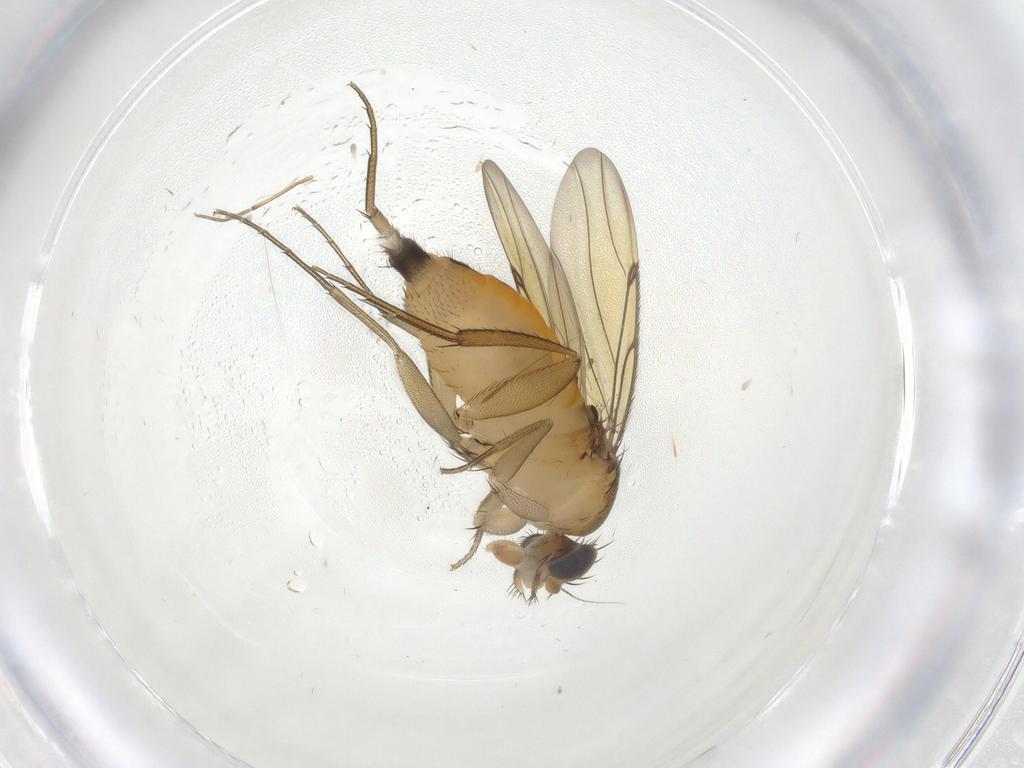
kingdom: Animalia
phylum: Arthropoda
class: Insecta
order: Diptera
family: Phoridae
